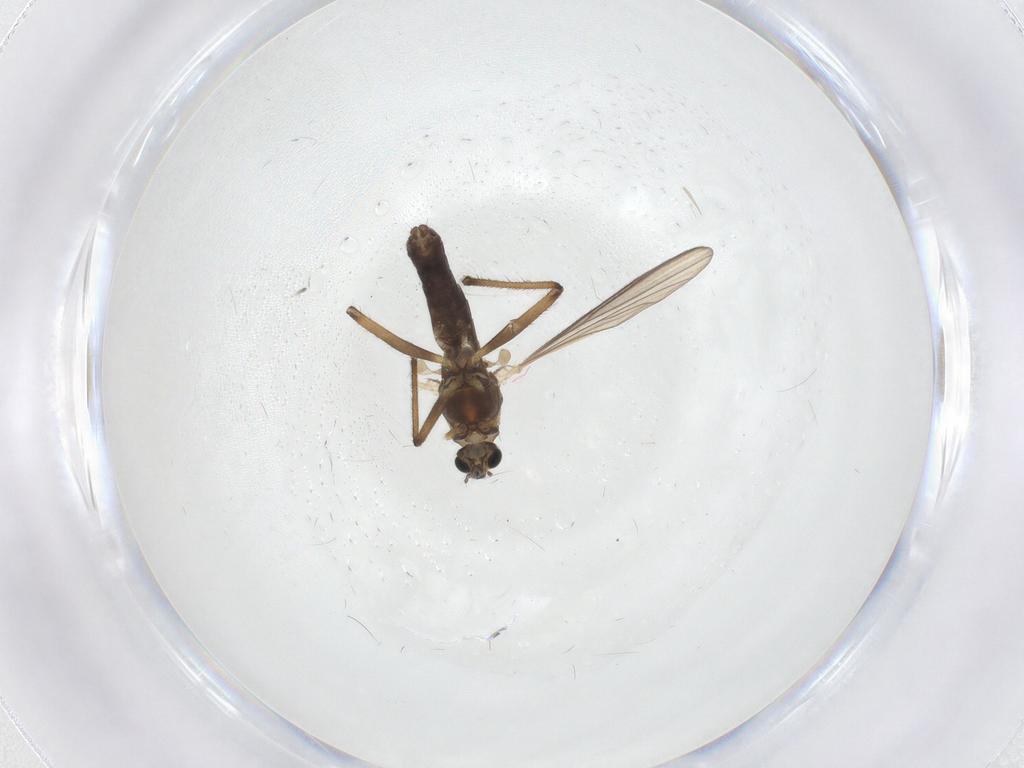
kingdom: Animalia
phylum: Arthropoda
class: Insecta
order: Diptera
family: Chironomidae
